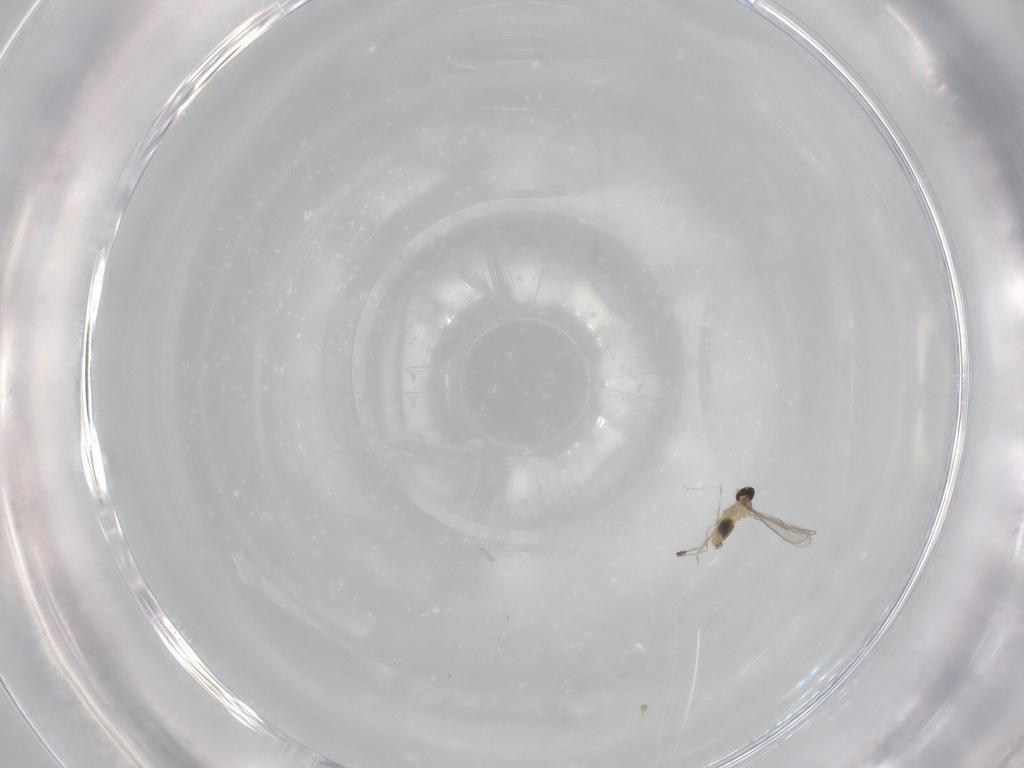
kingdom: Animalia
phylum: Arthropoda
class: Insecta
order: Diptera
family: Cecidomyiidae
